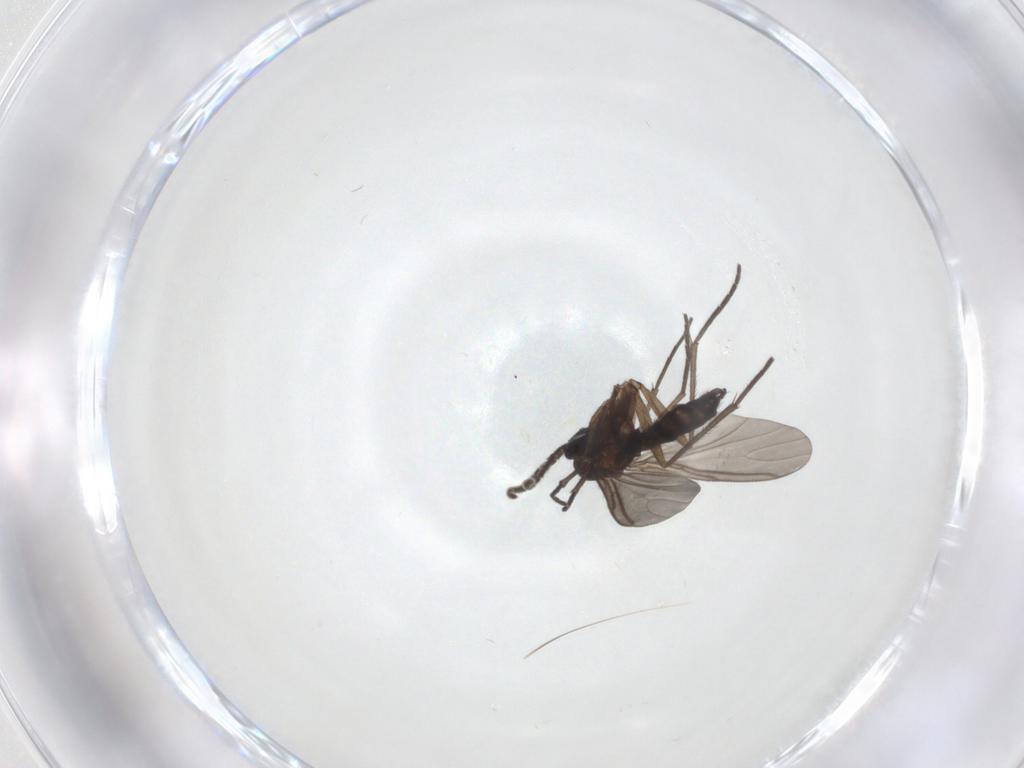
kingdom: Animalia
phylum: Arthropoda
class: Insecta
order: Diptera
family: Sciaridae
